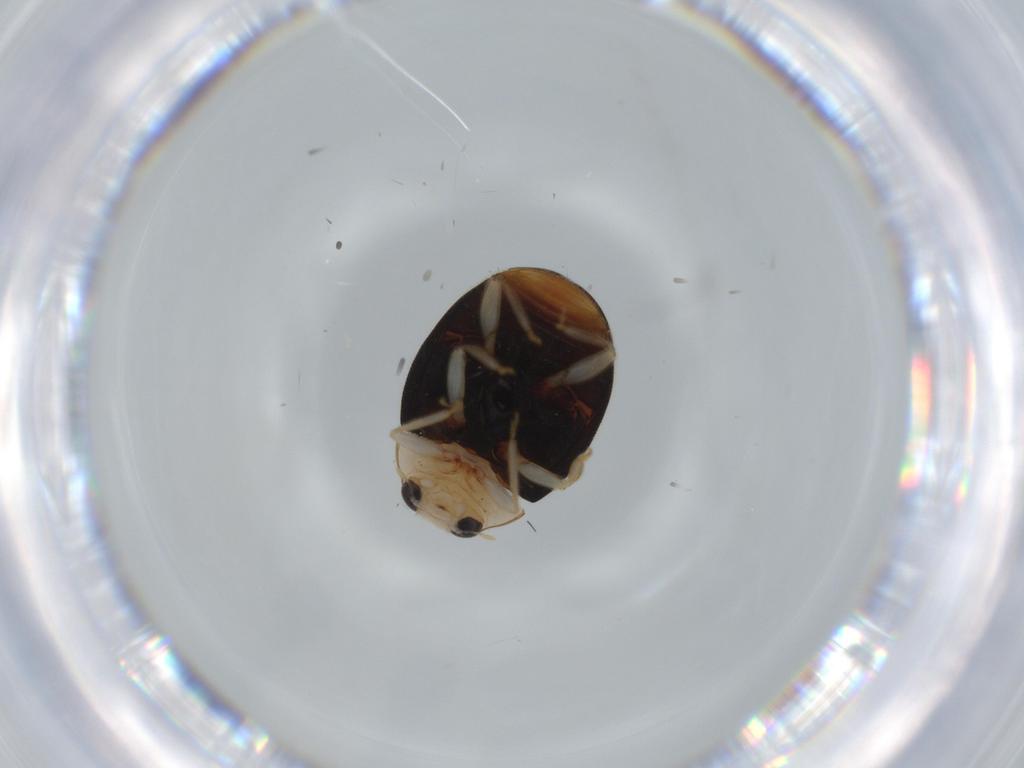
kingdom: Animalia
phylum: Arthropoda
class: Insecta
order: Coleoptera
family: Coccinellidae
